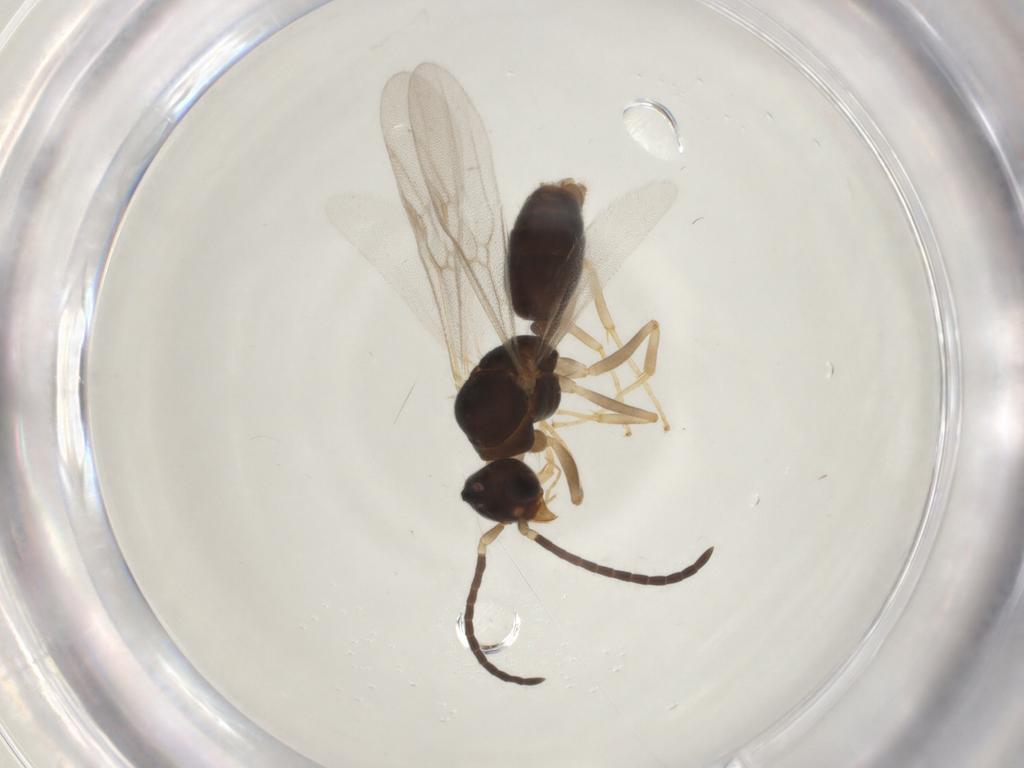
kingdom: Animalia
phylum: Arthropoda
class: Insecta
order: Hymenoptera
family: Formicidae
